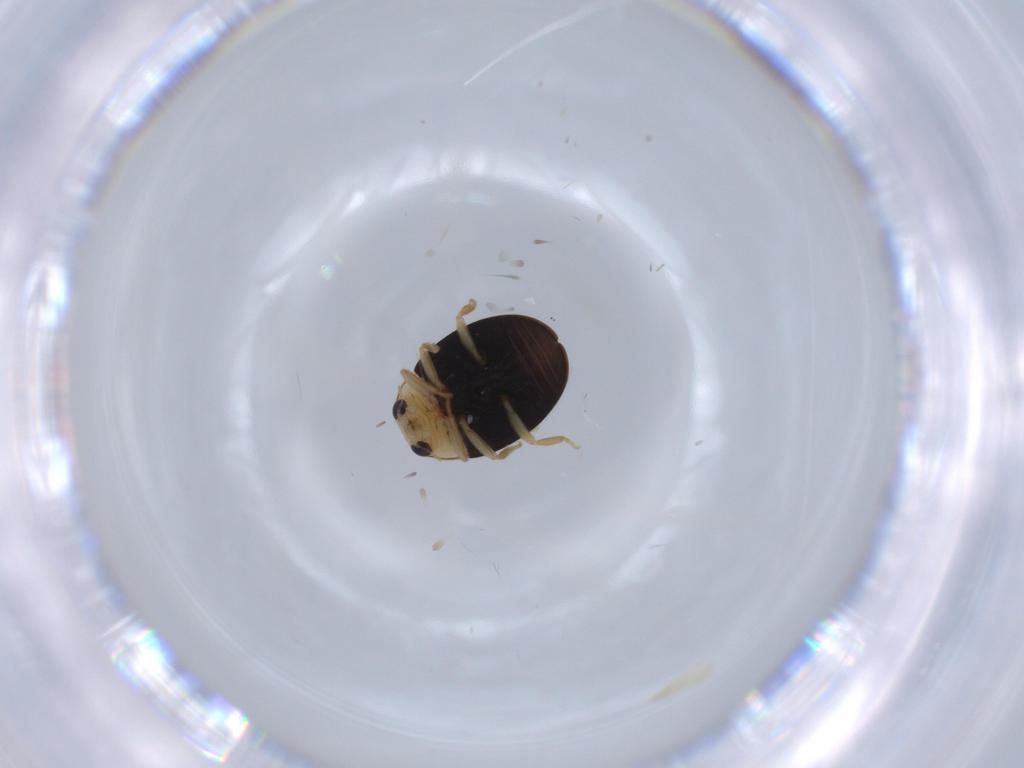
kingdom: Animalia
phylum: Arthropoda
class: Insecta
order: Coleoptera
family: Coccinellidae
